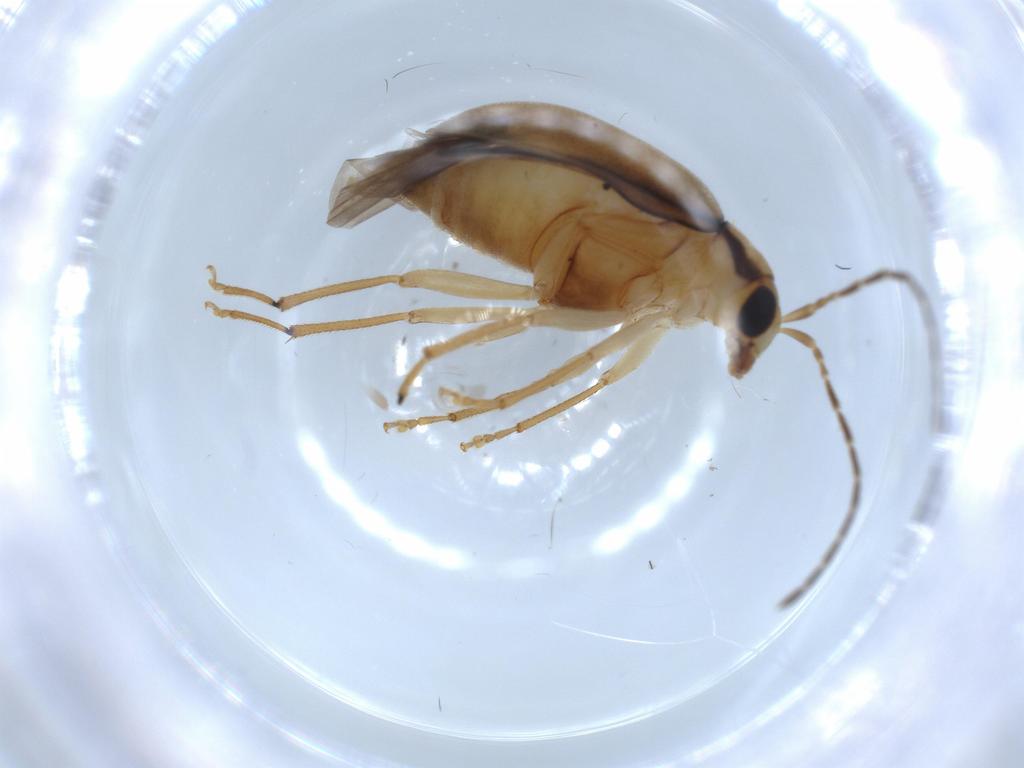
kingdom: Animalia
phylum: Arthropoda
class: Insecta
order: Coleoptera
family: Chrysomelidae
